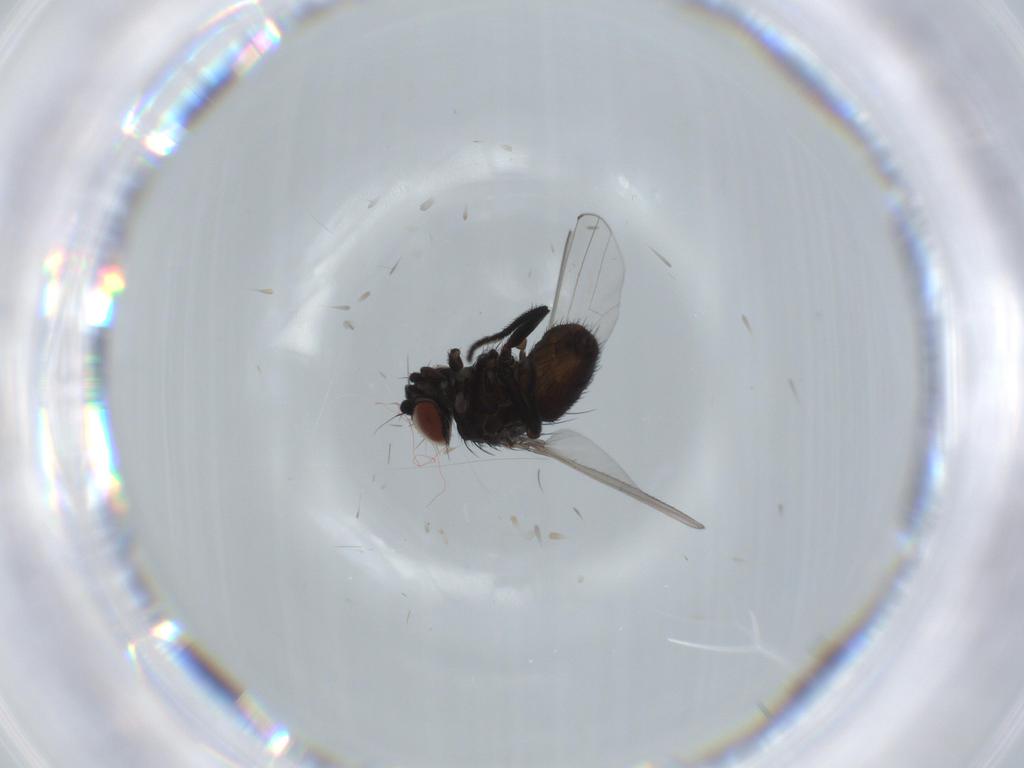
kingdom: Animalia
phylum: Arthropoda
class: Insecta
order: Diptera
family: Milichiidae
